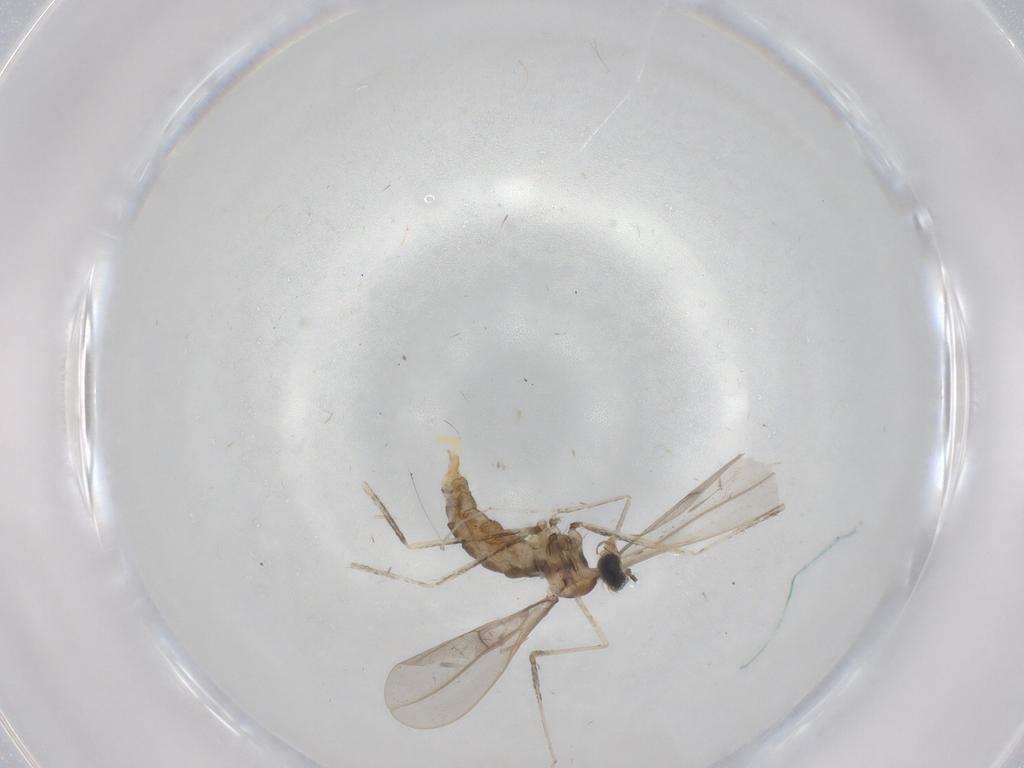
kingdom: Animalia
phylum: Arthropoda
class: Insecta
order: Diptera
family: Cecidomyiidae
